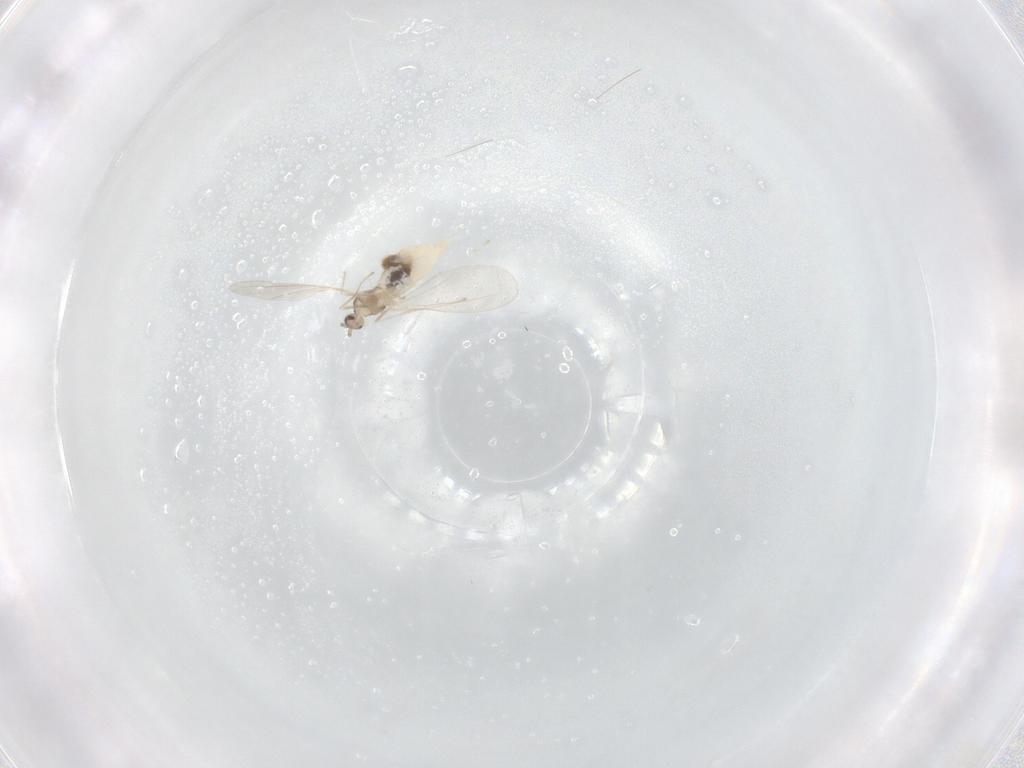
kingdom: Animalia
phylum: Arthropoda
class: Insecta
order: Diptera
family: Sphaeroceridae
